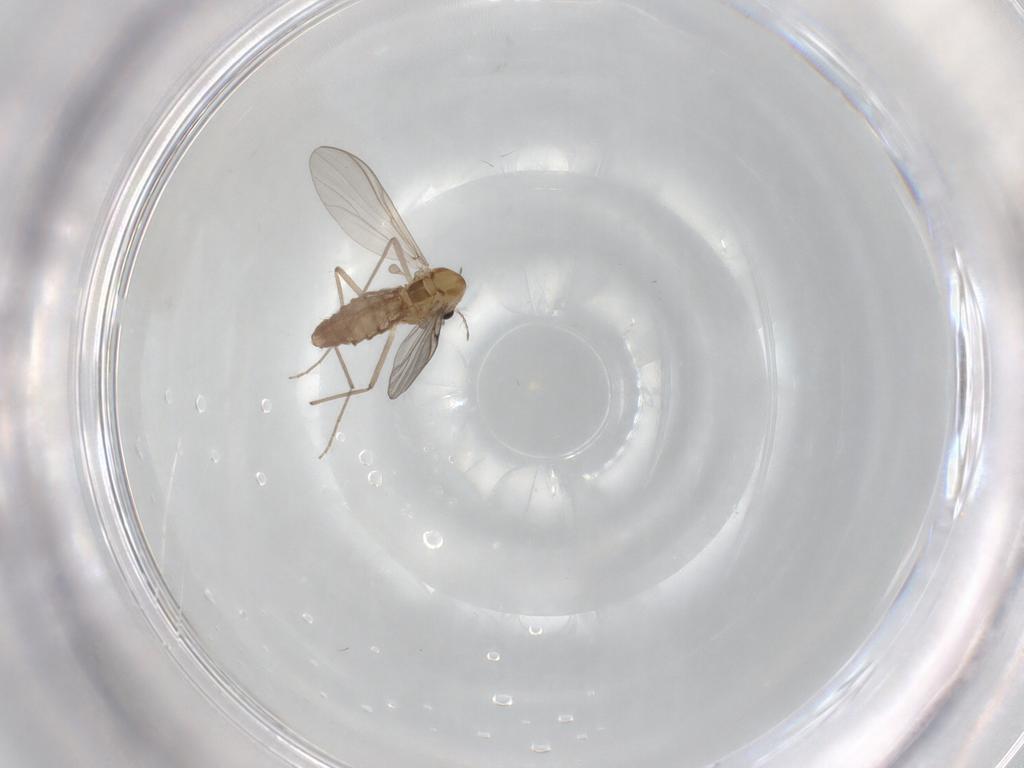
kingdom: Animalia
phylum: Arthropoda
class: Insecta
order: Diptera
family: Chironomidae
